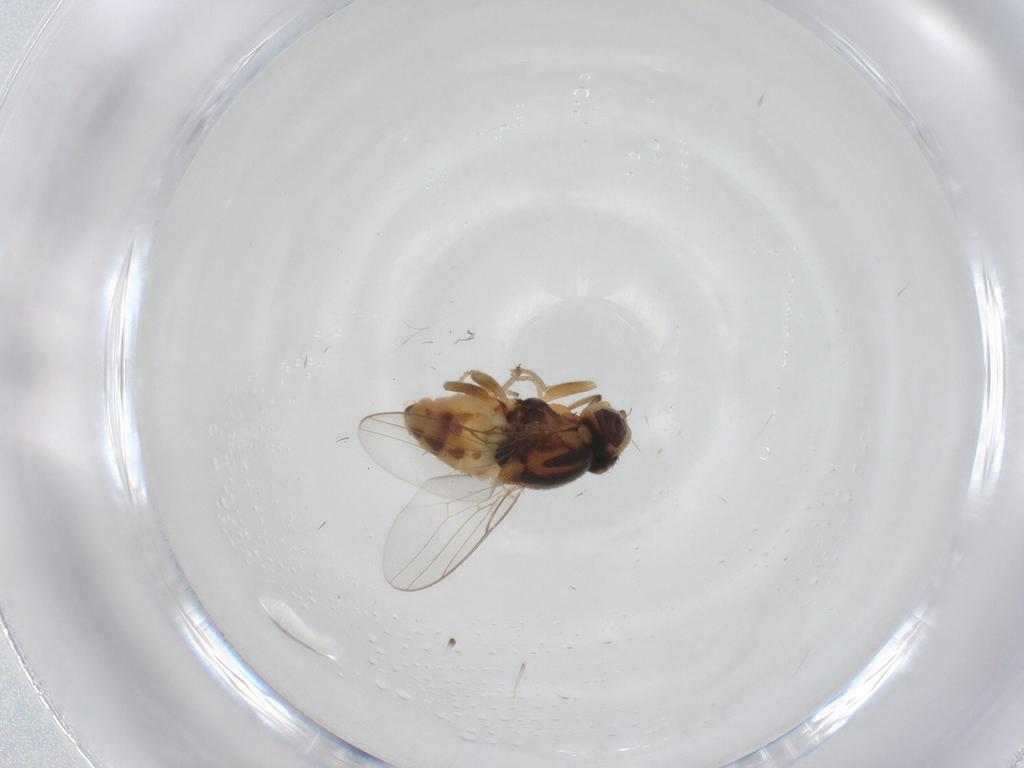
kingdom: Animalia
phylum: Arthropoda
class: Insecta
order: Diptera
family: Chloropidae
